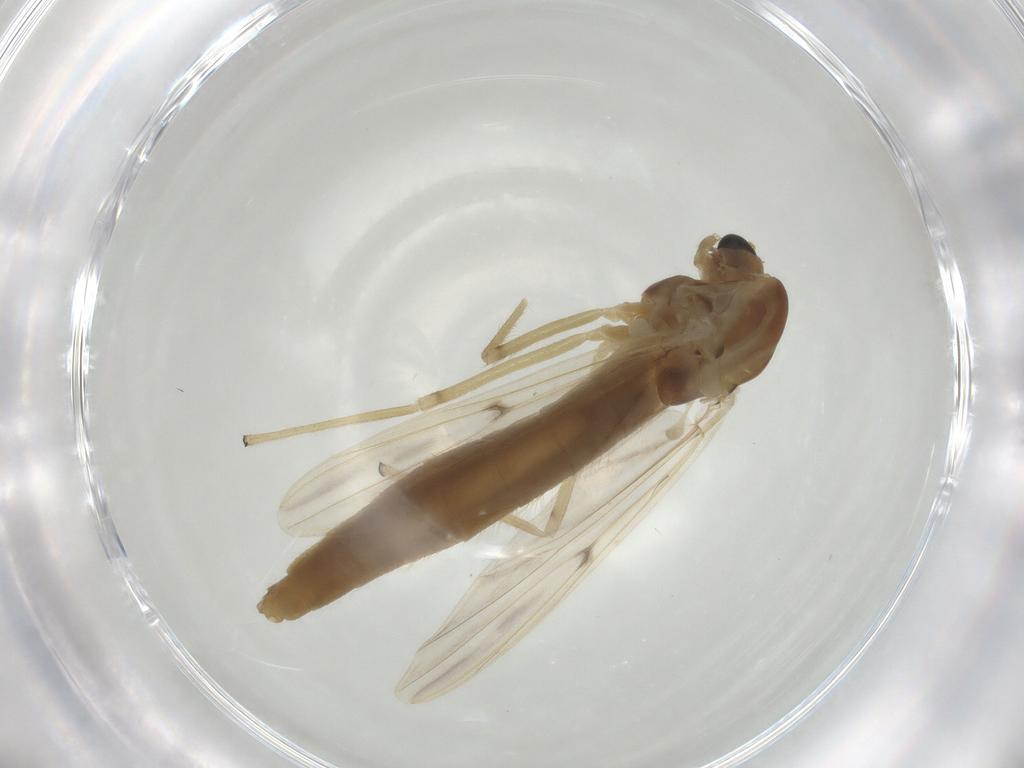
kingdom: Animalia
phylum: Arthropoda
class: Insecta
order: Diptera
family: Chironomidae
